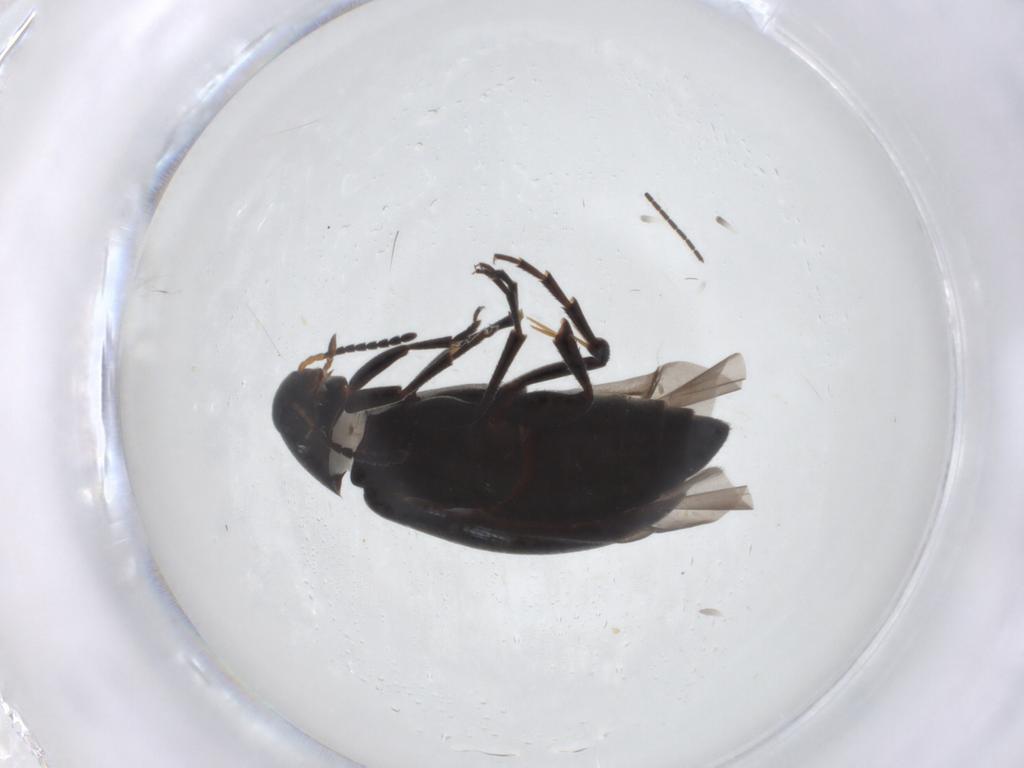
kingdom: Animalia
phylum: Arthropoda
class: Insecta
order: Coleoptera
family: Scraptiidae
